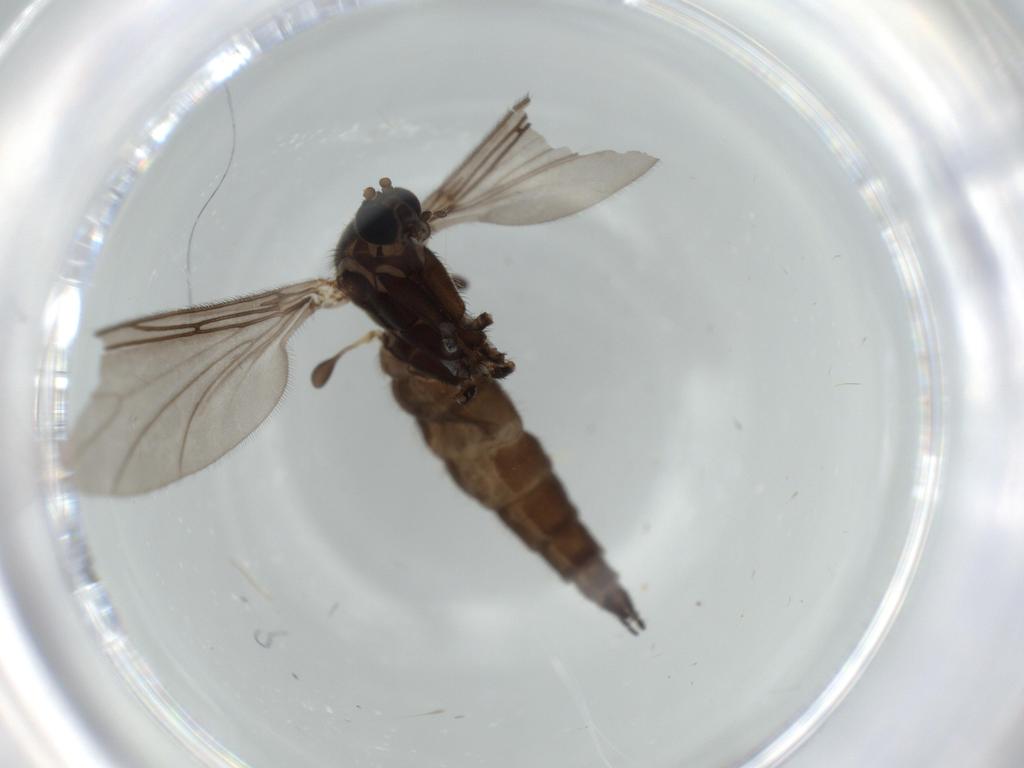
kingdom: Animalia
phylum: Arthropoda
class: Insecta
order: Diptera
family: Sciaridae
